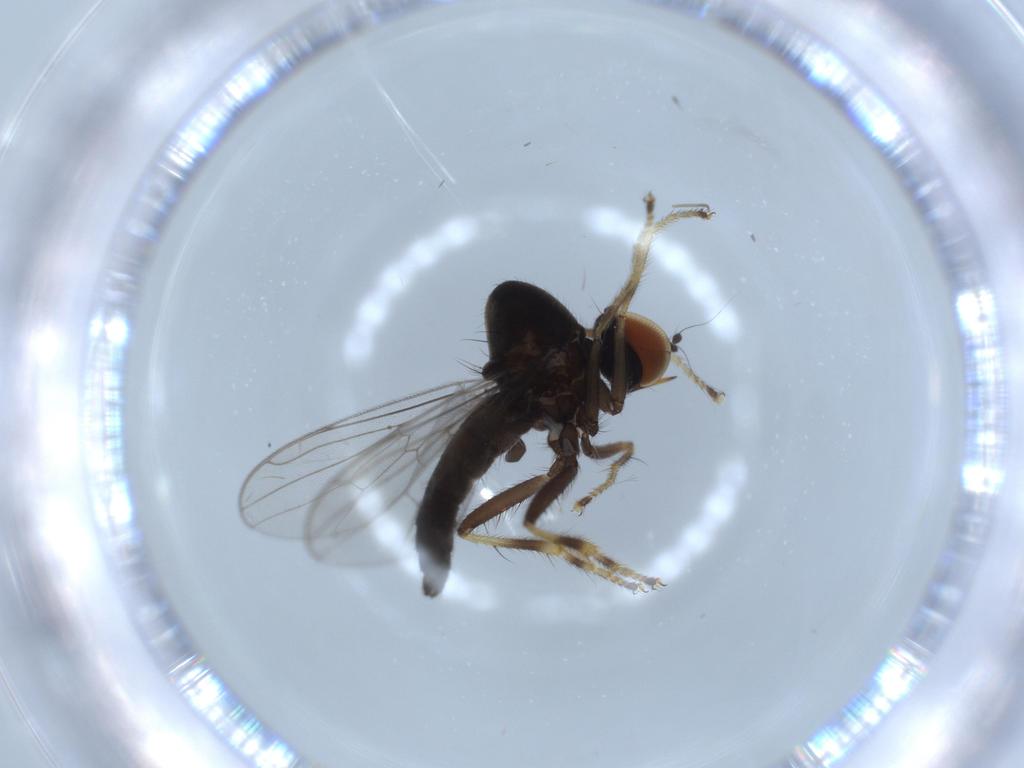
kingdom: Animalia
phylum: Arthropoda
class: Insecta
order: Diptera
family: Hybotidae
